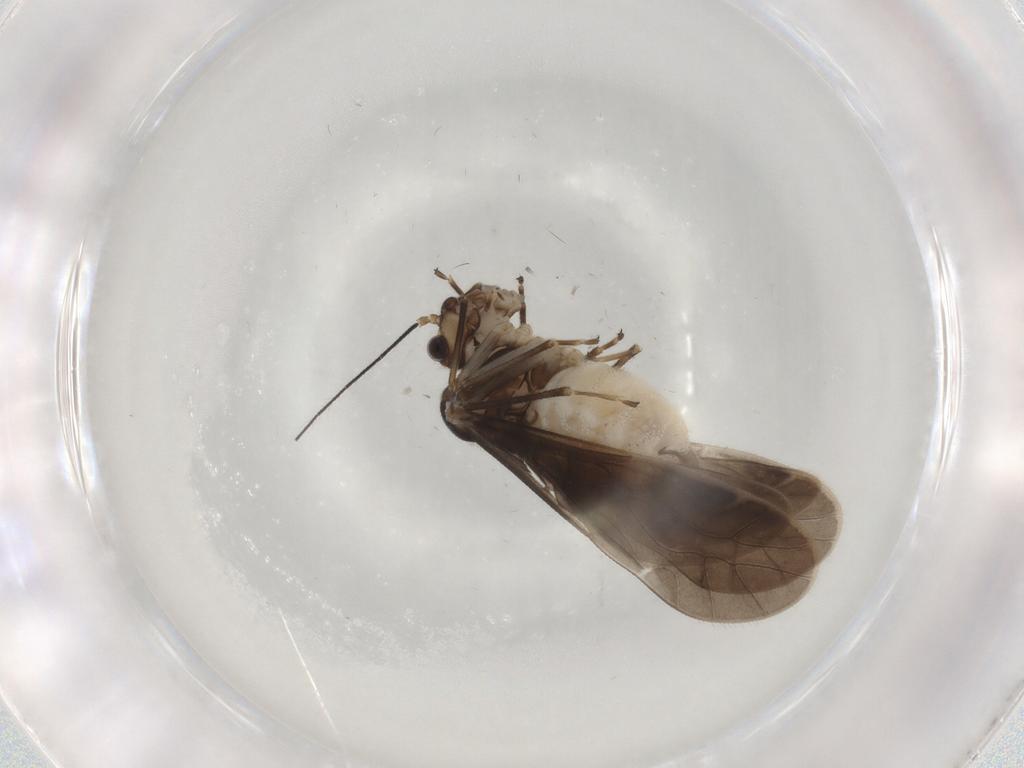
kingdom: Animalia
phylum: Arthropoda
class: Insecta
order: Psocodea
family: Caeciliusidae
